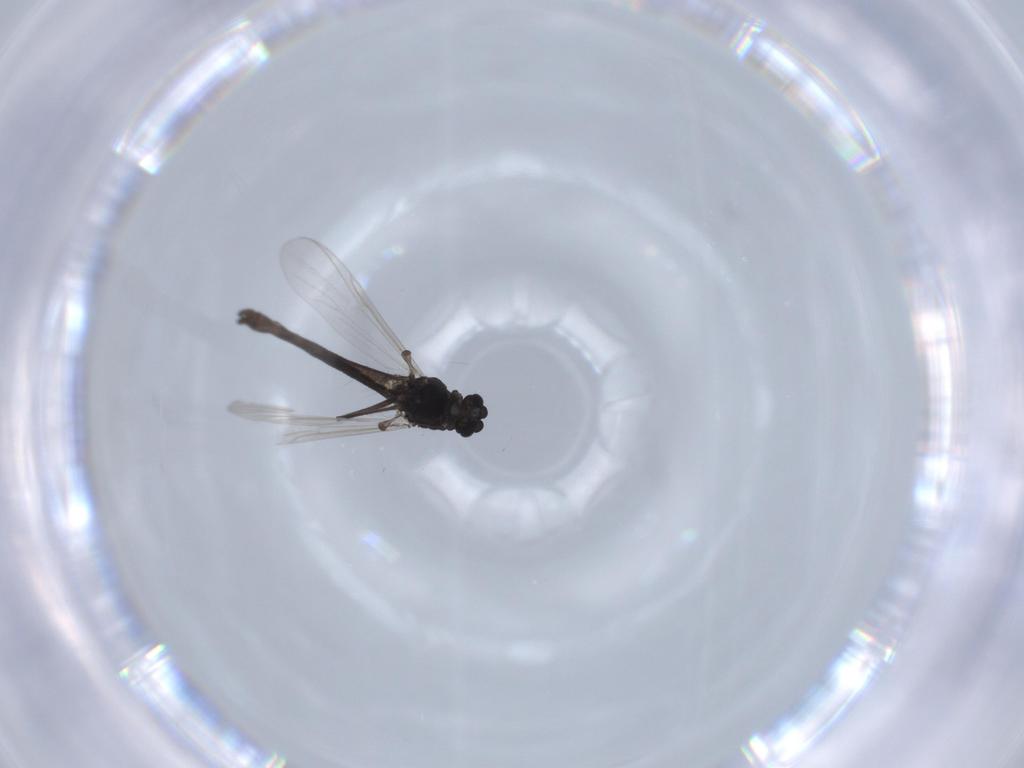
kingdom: Animalia
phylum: Arthropoda
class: Insecta
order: Diptera
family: Chironomidae
